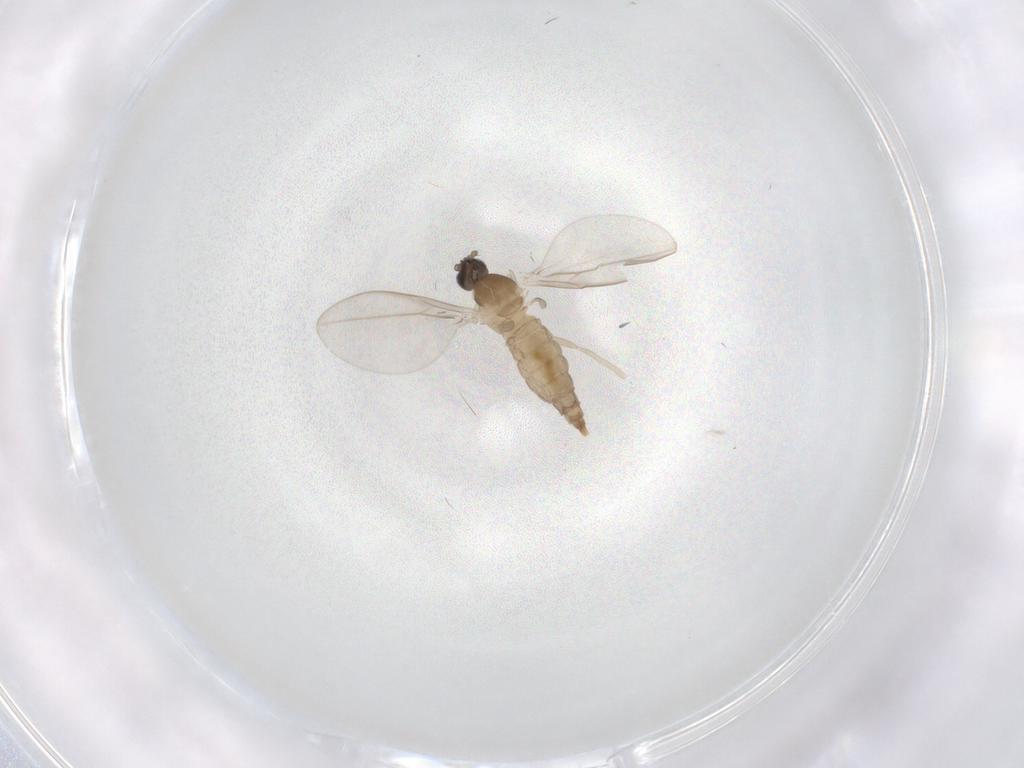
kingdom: Animalia
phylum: Arthropoda
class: Insecta
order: Diptera
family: Cecidomyiidae
